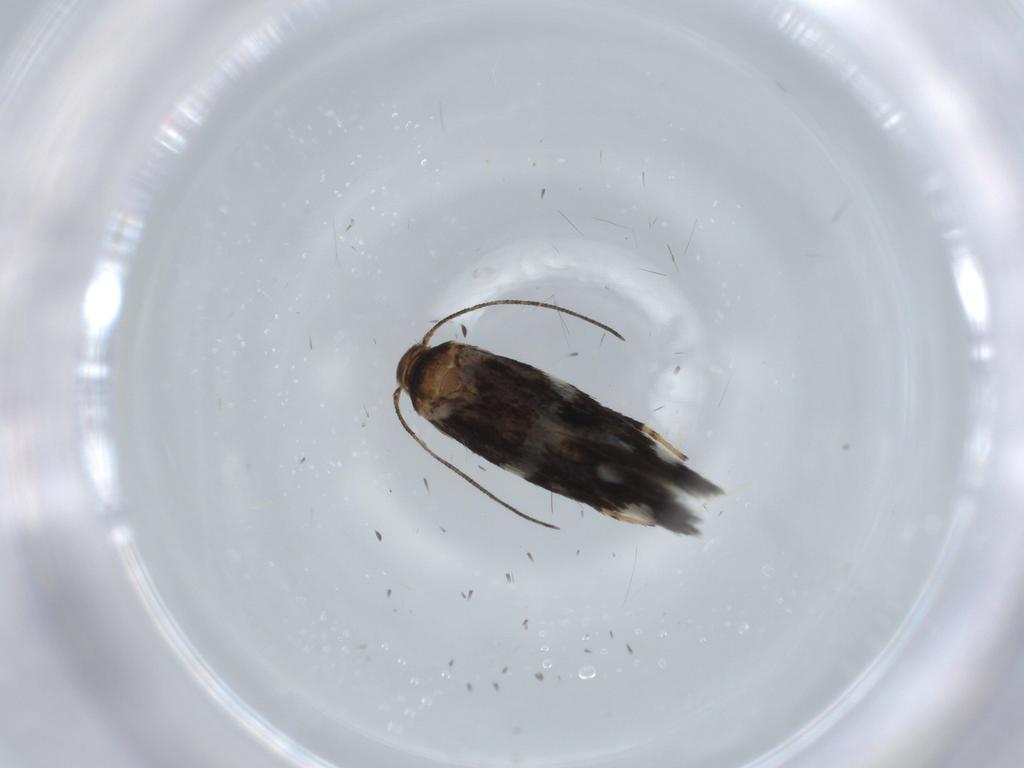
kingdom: Animalia
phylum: Arthropoda
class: Insecta
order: Lepidoptera
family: Cosmopterigidae
